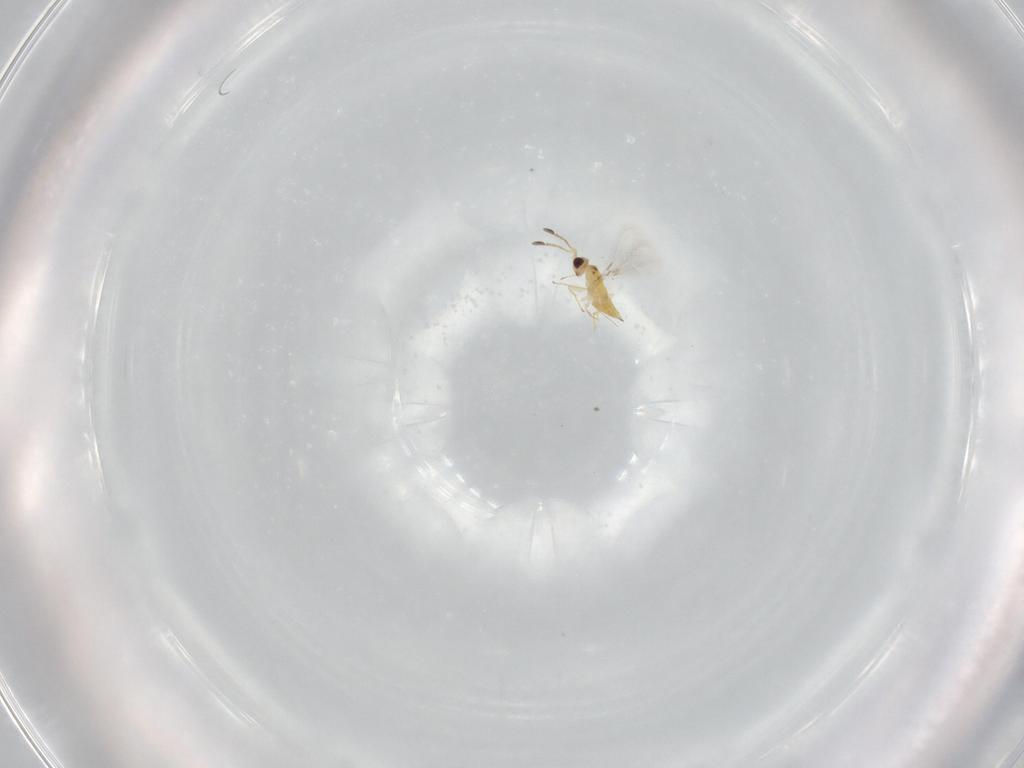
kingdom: Animalia
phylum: Arthropoda
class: Insecta
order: Hymenoptera
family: Mymaridae
